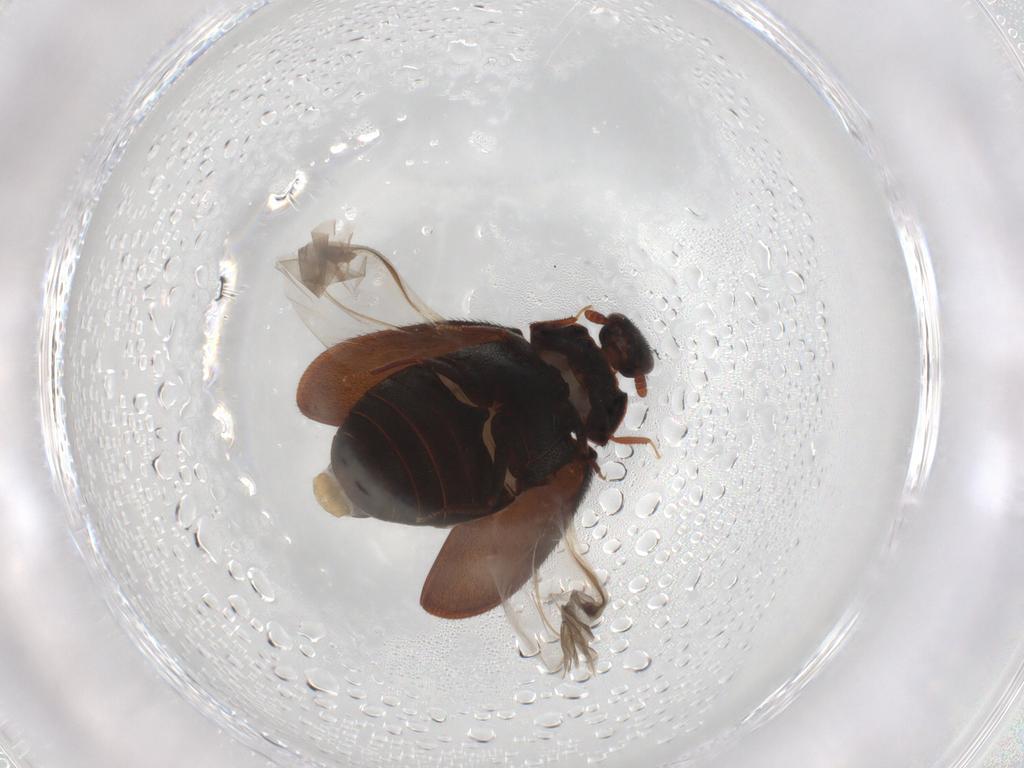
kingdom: Animalia
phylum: Arthropoda
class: Insecta
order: Coleoptera
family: Dermestidae
